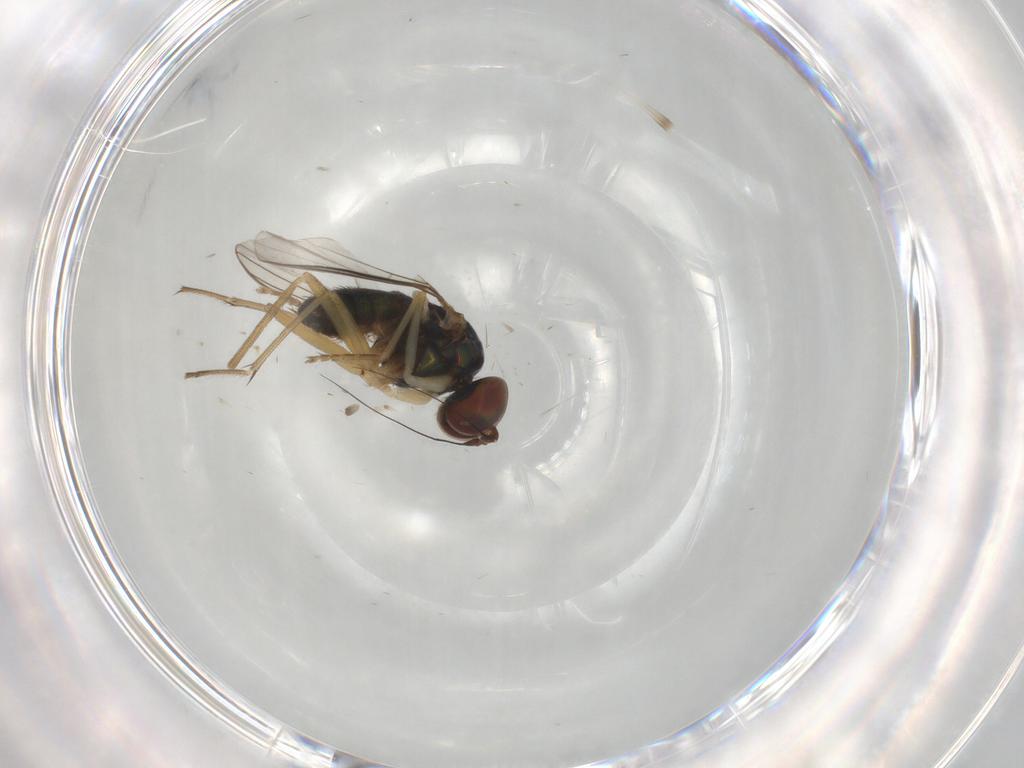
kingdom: Animalia
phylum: Arthropoda
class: Insecta
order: Diptera
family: Dolichopodidae
